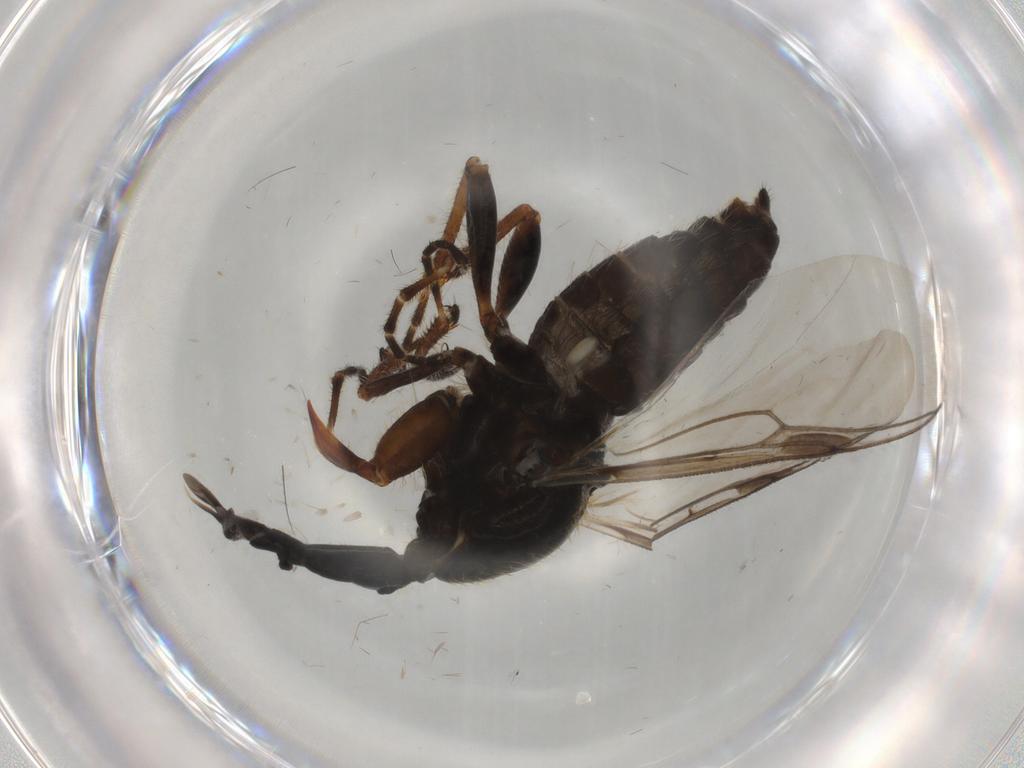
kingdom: Animalia
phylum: Arthropoda
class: Insecta
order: Diptera
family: Bibionidae
